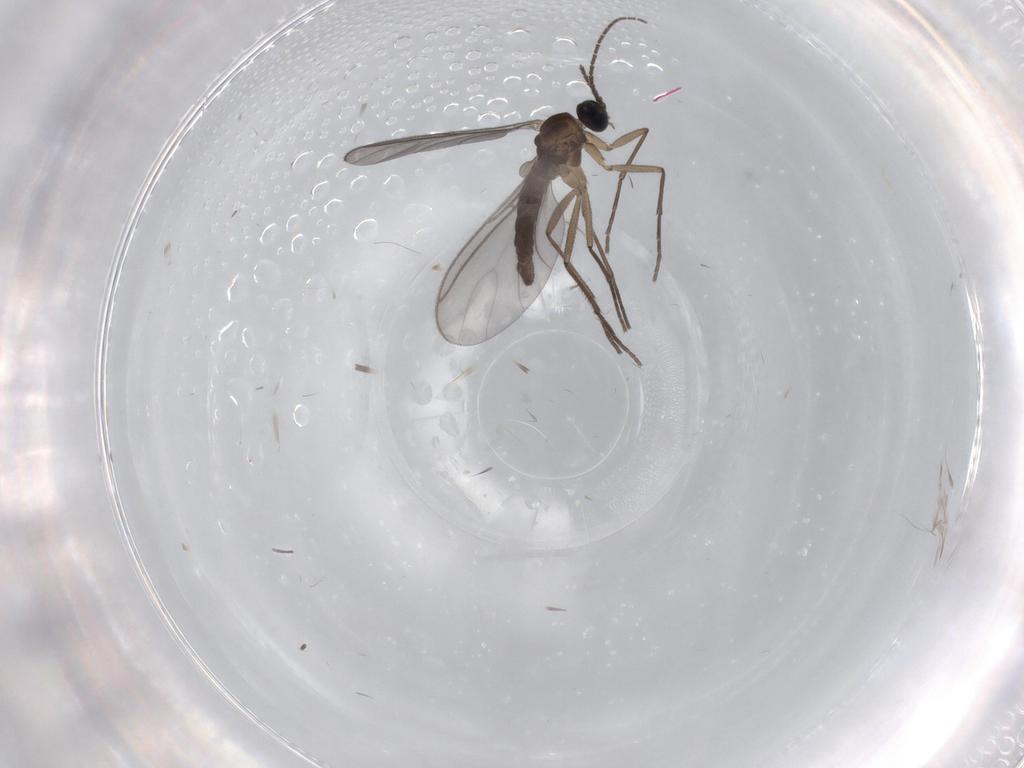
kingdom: Animalia
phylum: Arthropoda
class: Insecta
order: Diptera
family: Sciaridae
